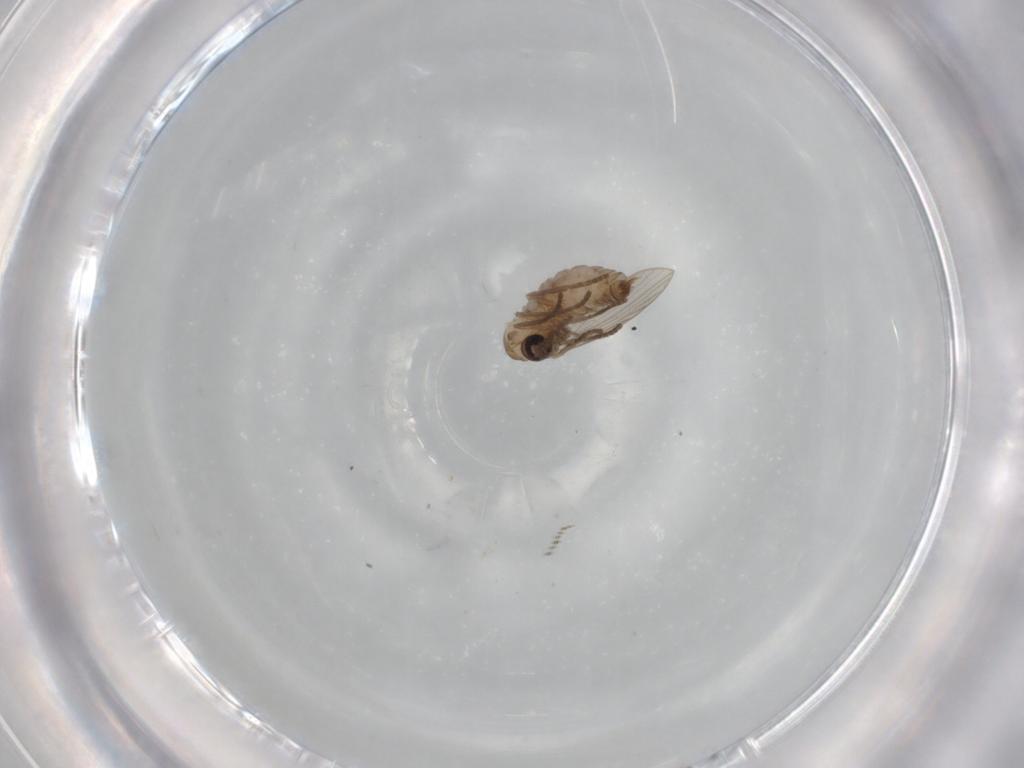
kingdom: Animalia
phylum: Arthropoda
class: Insecta
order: Diptera
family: Psychodidae
